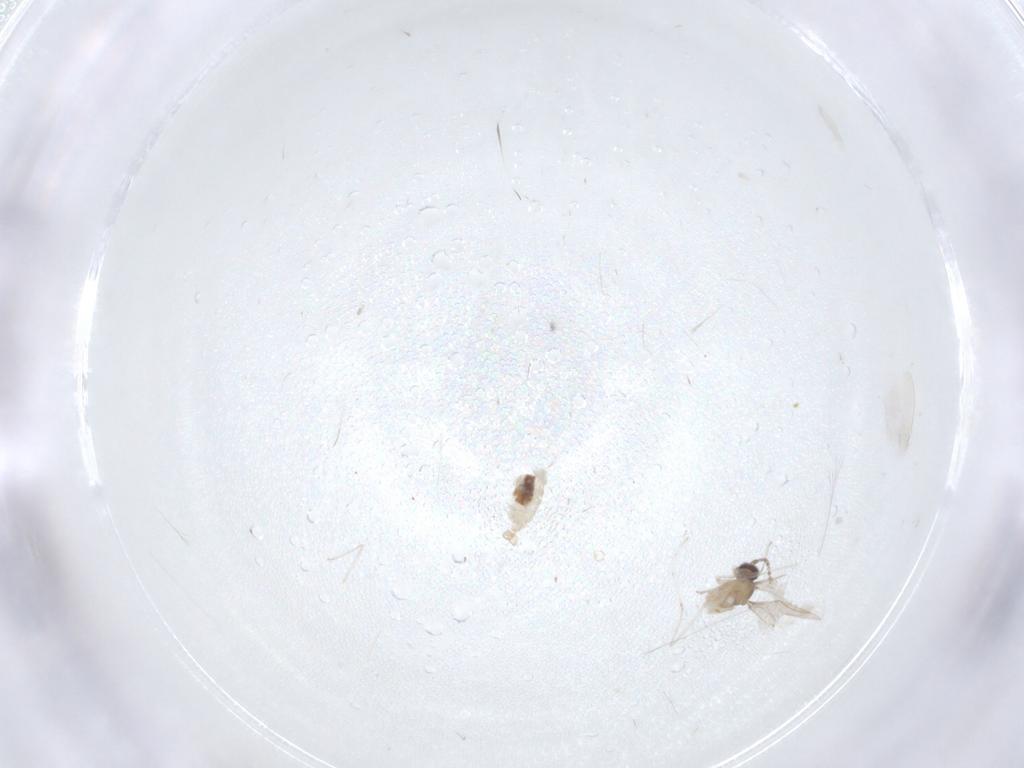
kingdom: Animalia
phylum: Arthropoda
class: Insecta
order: Diptera
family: Cecidomyiidae
